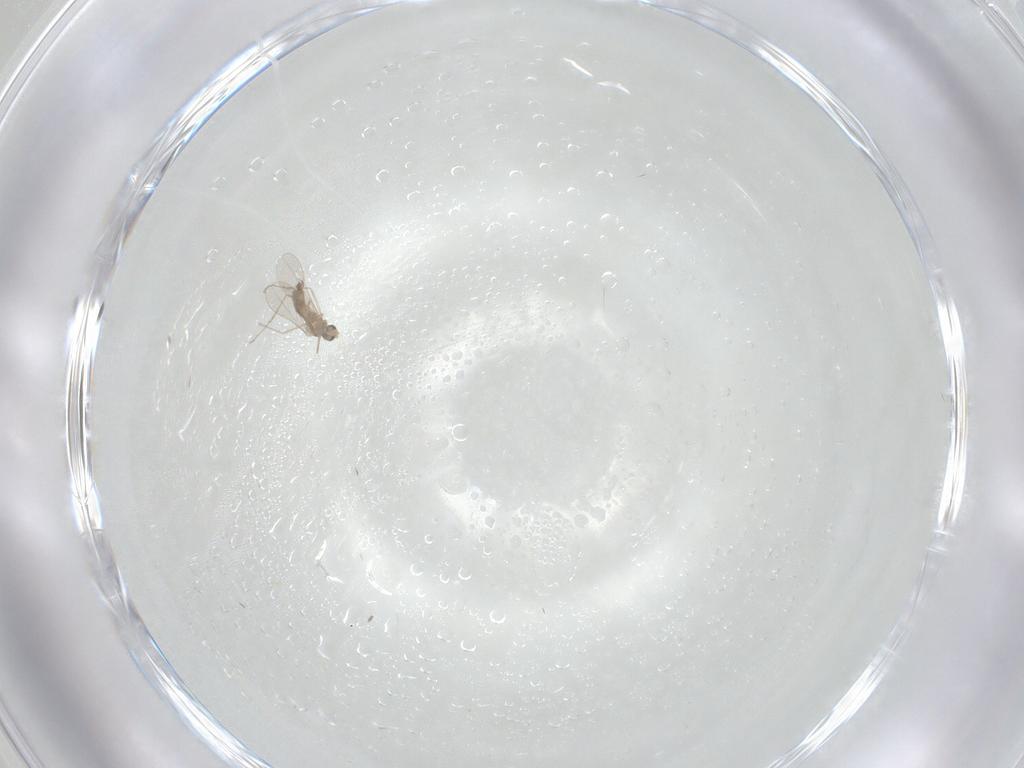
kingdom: Animalia
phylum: Arthropoda
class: Insecta
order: Diptera
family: Cecidomyiidae
